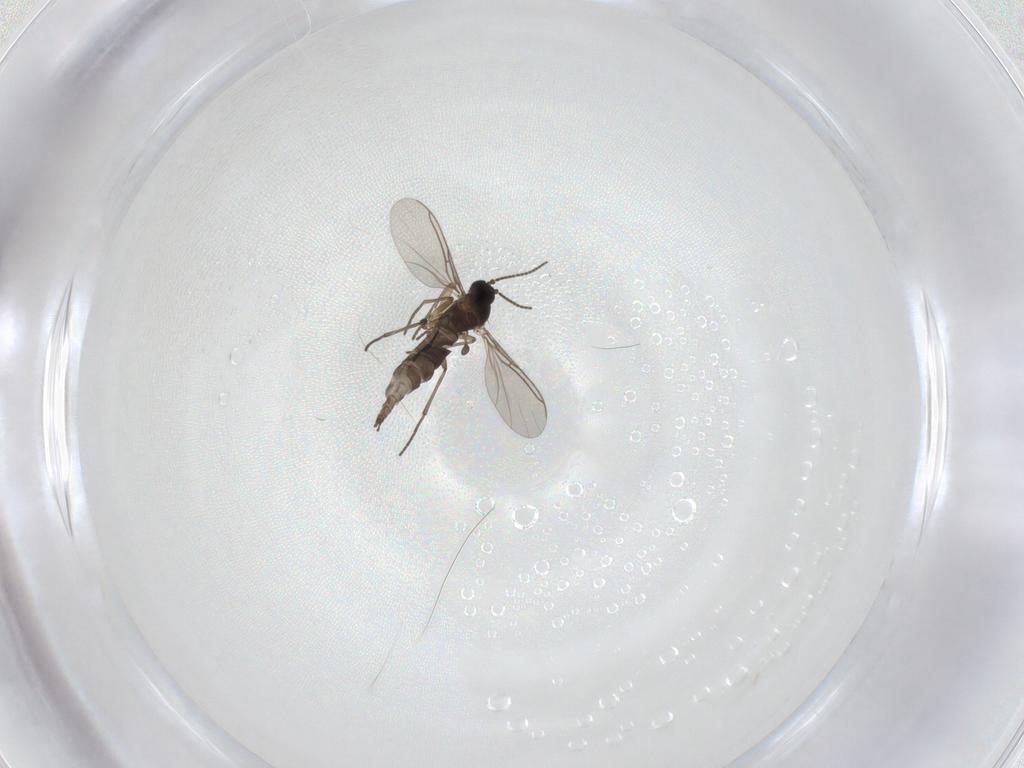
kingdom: Animalia
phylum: Arthropoda
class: Insecta
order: Diptera
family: Sciaridae
